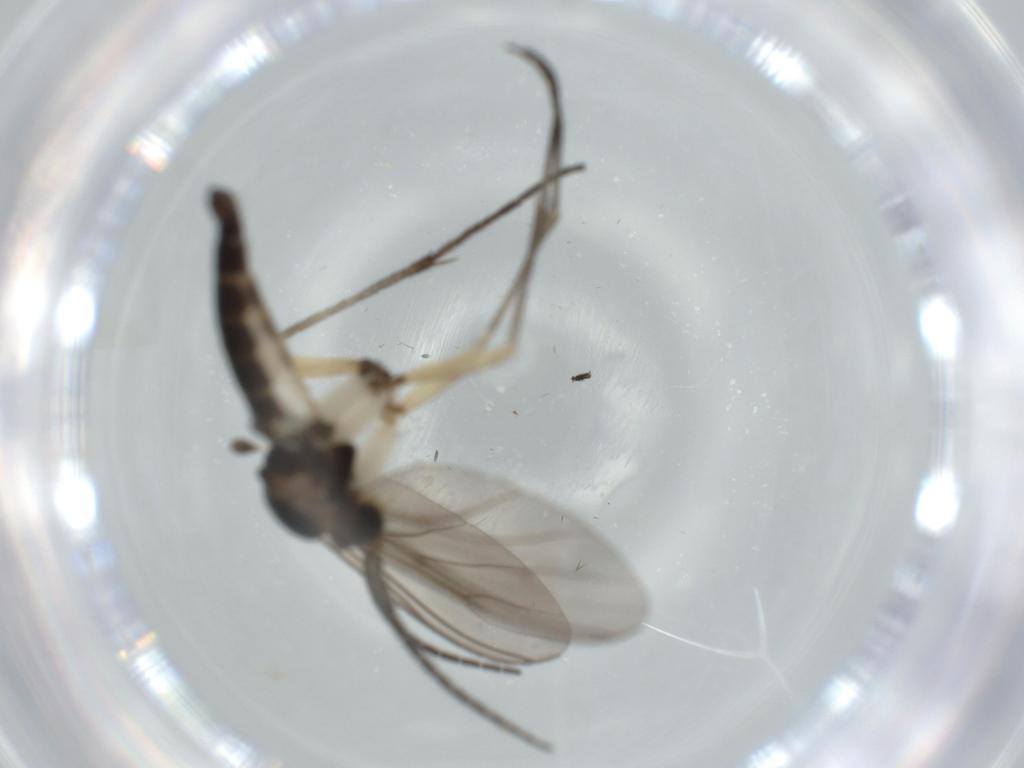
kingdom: Animalia
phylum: Arthropoda
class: Insecta
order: Diptera
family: Sciaridae
